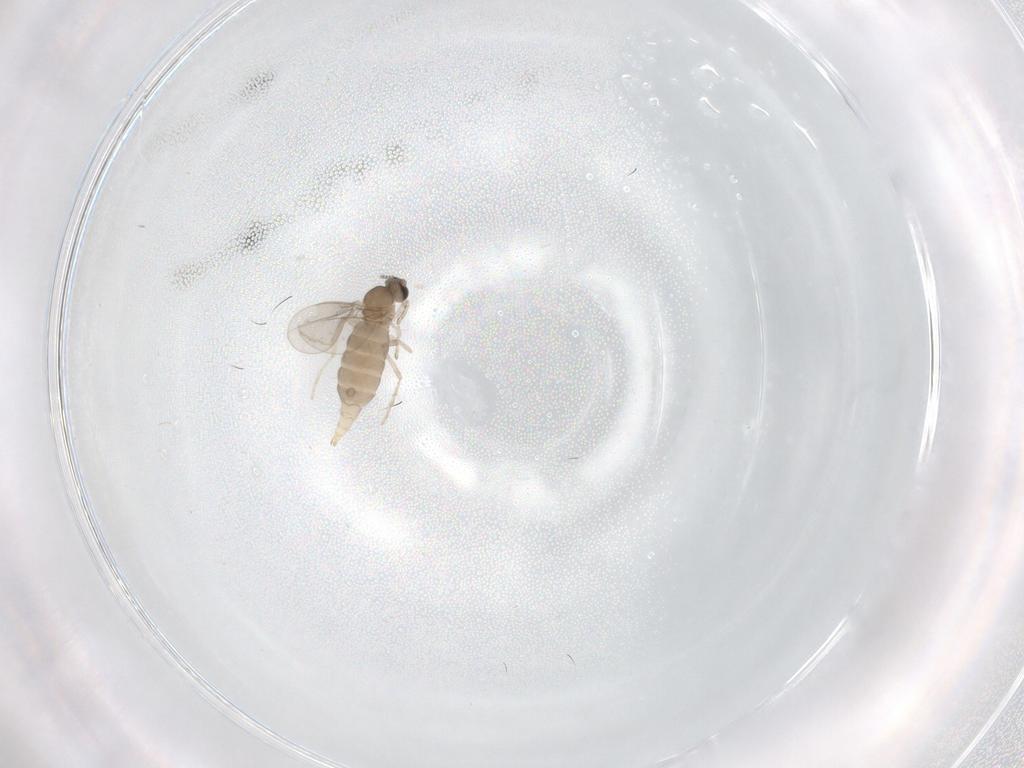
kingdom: Animalia
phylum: Arthropoda
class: Insecta
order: Diptera
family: Cecidomyiidae
